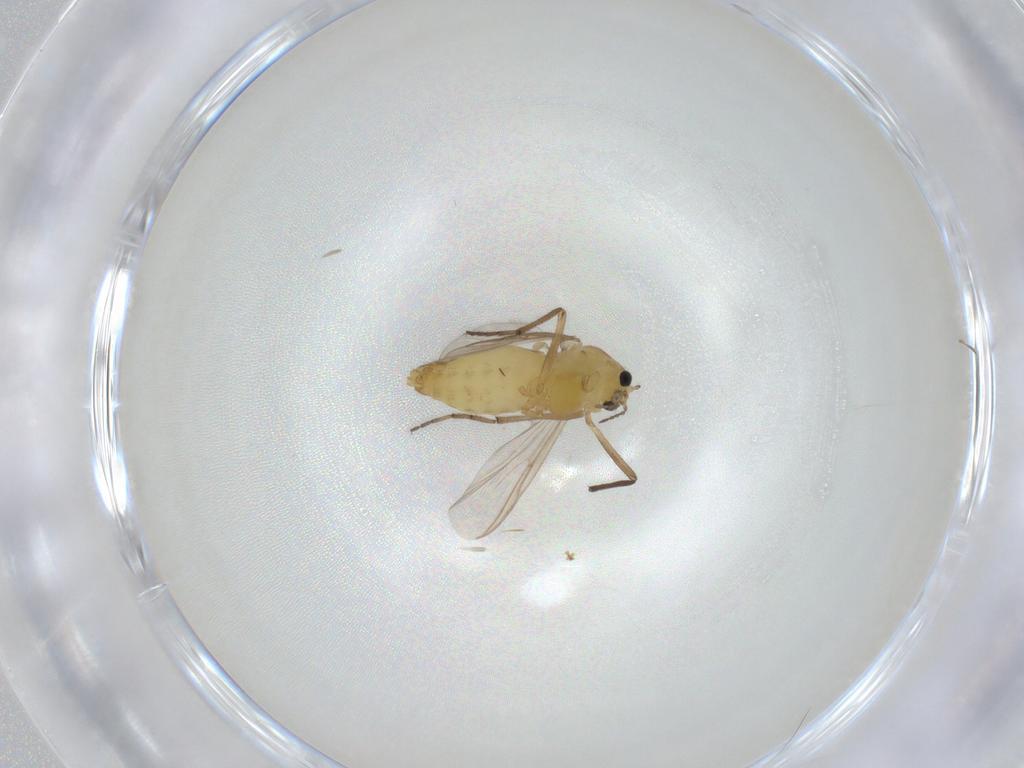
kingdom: Animalia
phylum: Arthropoda
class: Insecta
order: Diptera
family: Chironomidae
